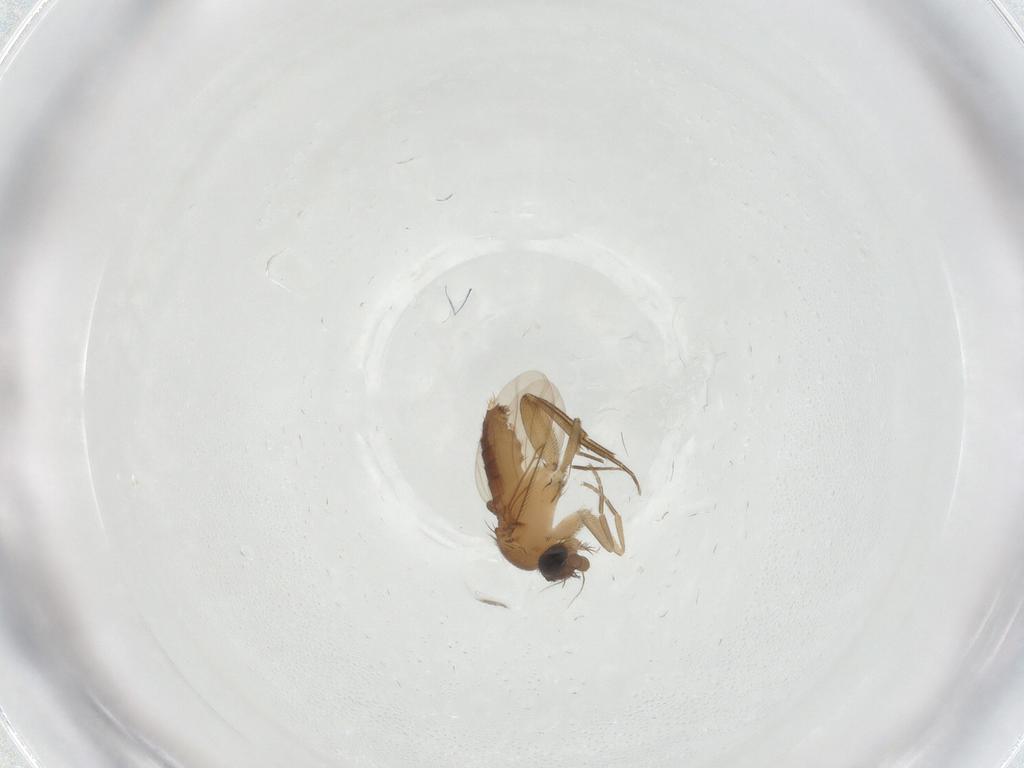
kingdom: Animalia
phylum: Arthropoda
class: Insecta
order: Diptera
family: Phoridae
